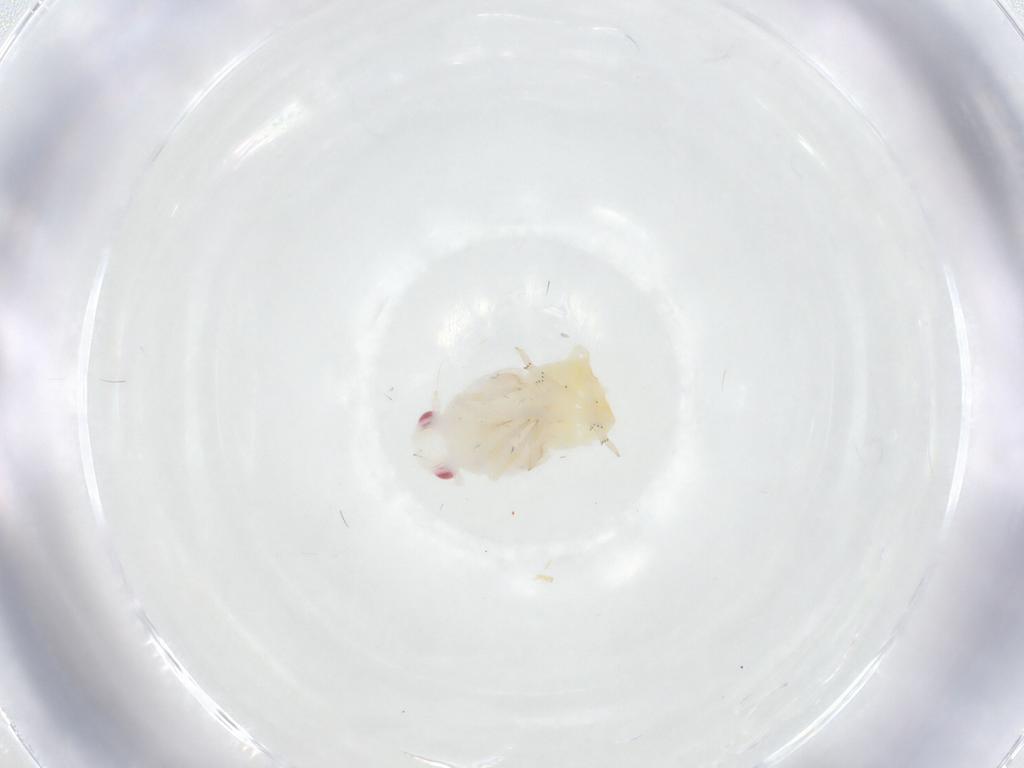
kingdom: Animalia
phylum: Arthropoda
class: Insecta
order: Hemiptera
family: Flatidae
